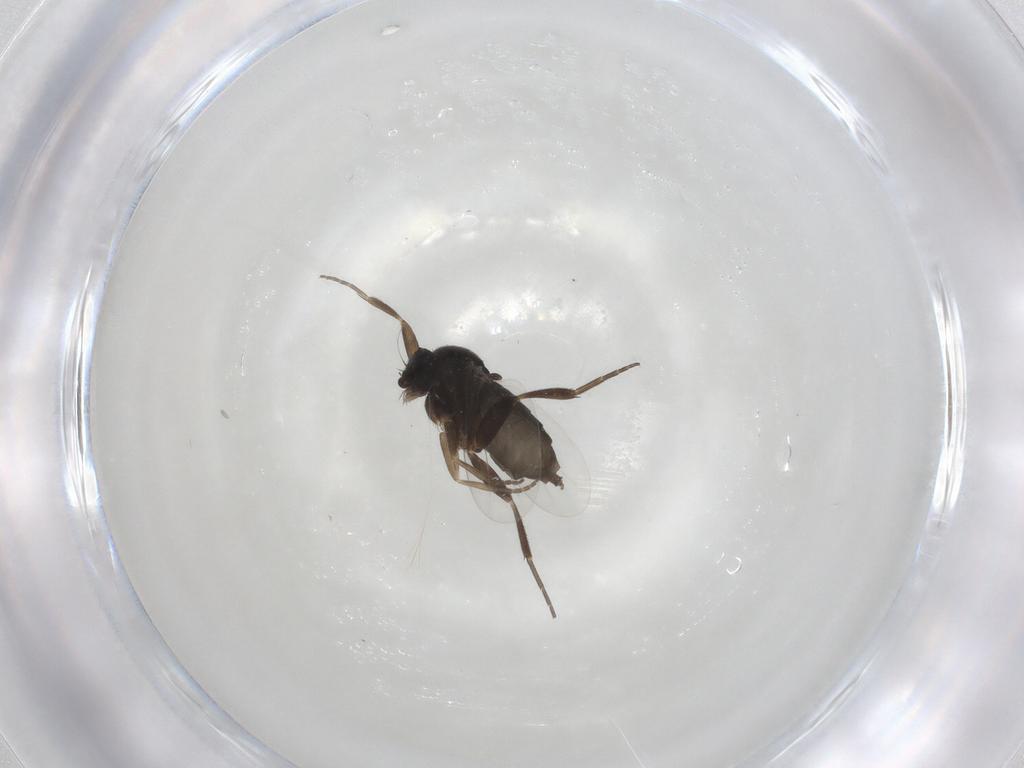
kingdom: Animalia
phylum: Arthropoda
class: Insecta
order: Diptera
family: Phoridae
